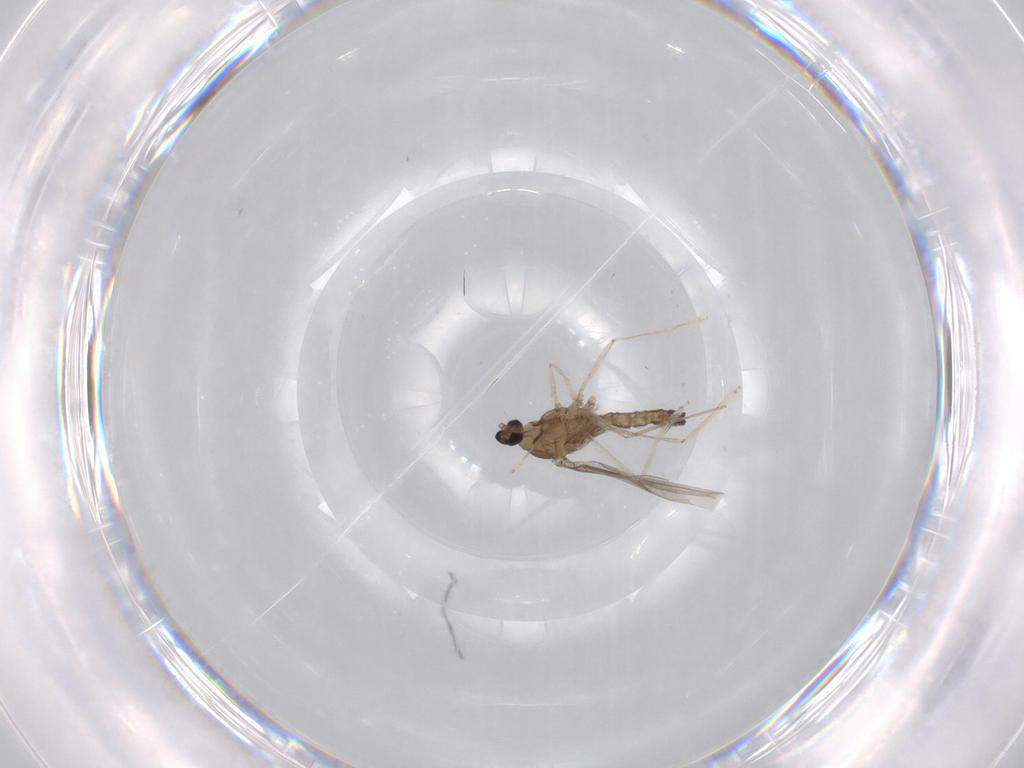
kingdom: Animalia
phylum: Arthropoda
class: Insecta
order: Diptera
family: Cecidomyiidae
